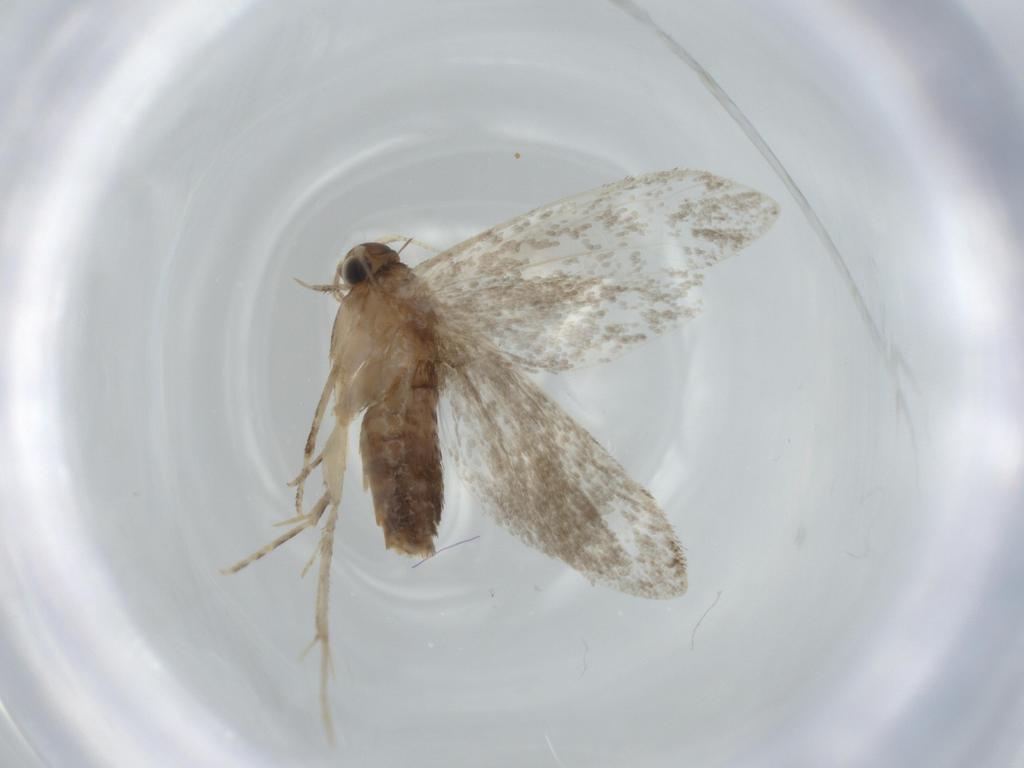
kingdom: Animalia
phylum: Arthropoda
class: Insecta
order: Lepidoptera
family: Tineidae
